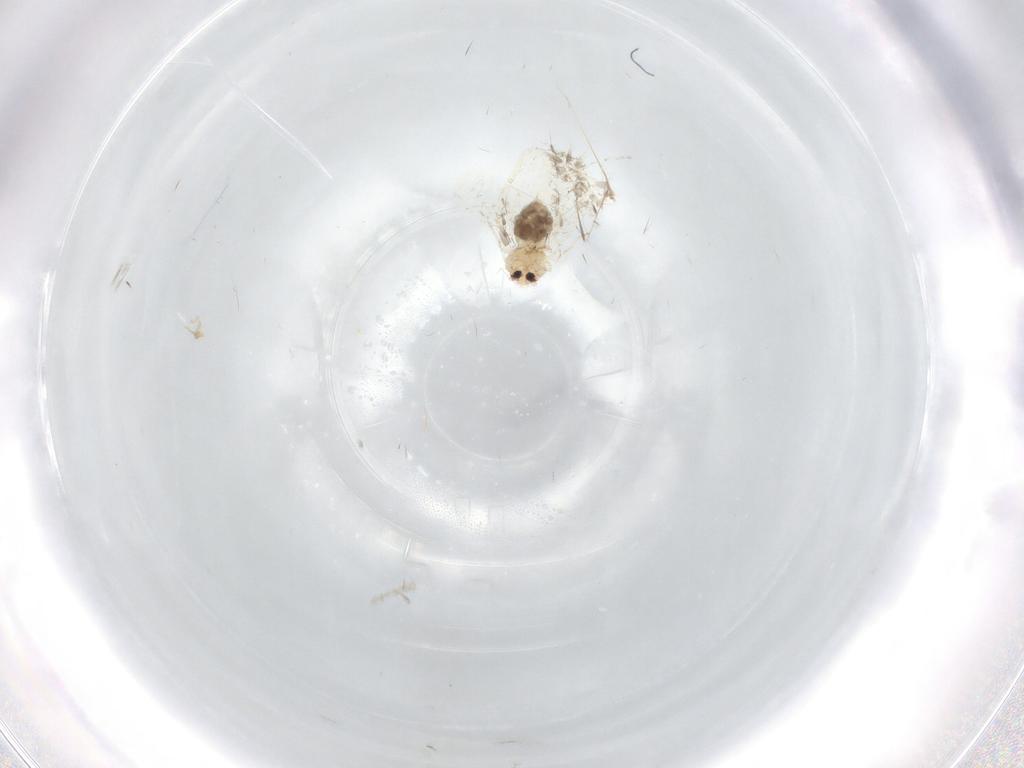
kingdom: Animalia
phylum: Arthropoda
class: Insecta
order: Hemiptera
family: Aleyrodidae
